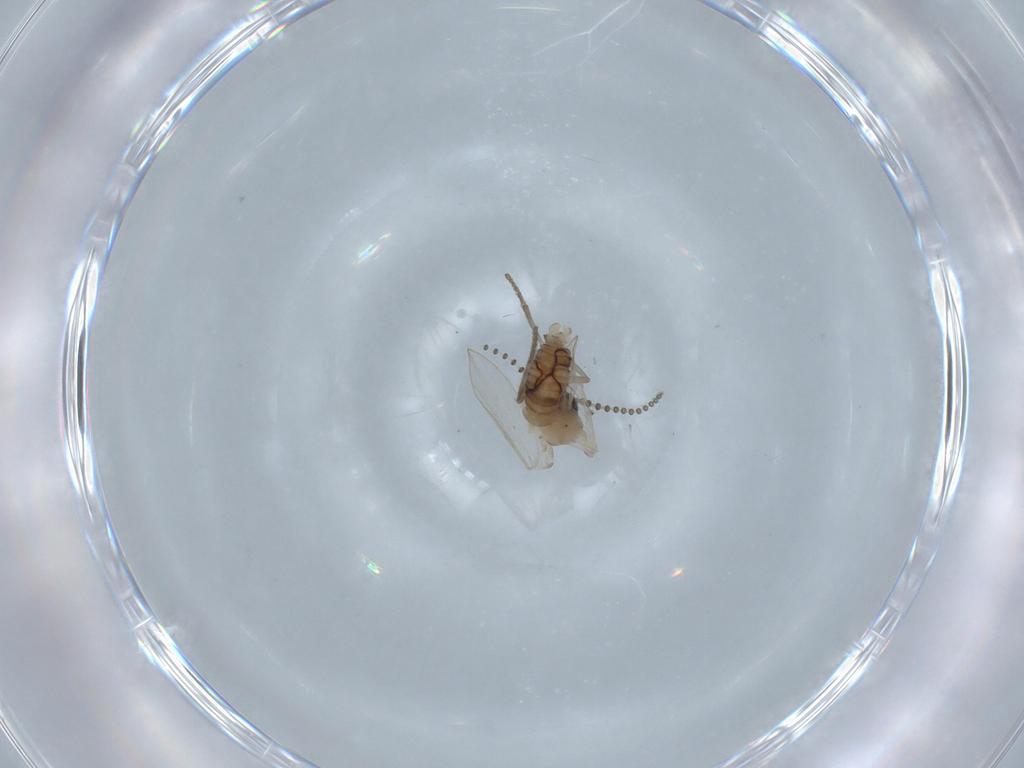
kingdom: Animalia
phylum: Arthropoda
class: Insecta
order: Diptera
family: Psychodidae
